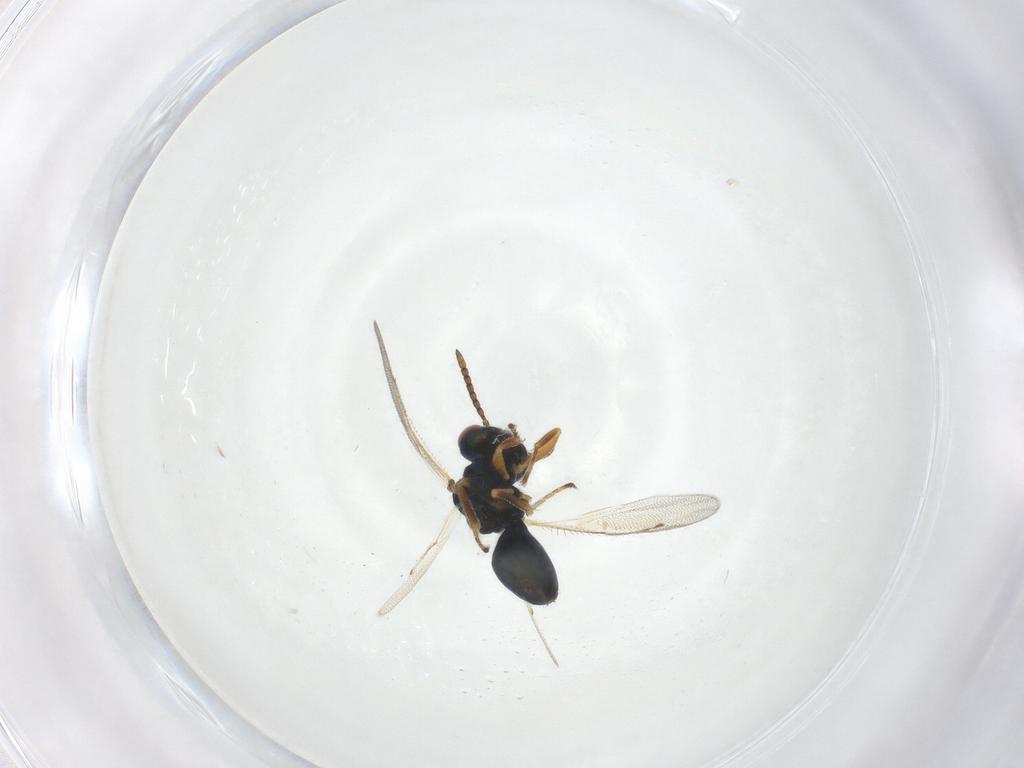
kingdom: Animalia
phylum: Arthropoda
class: Insecta
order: Hymenoptera
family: Pteromalidae
